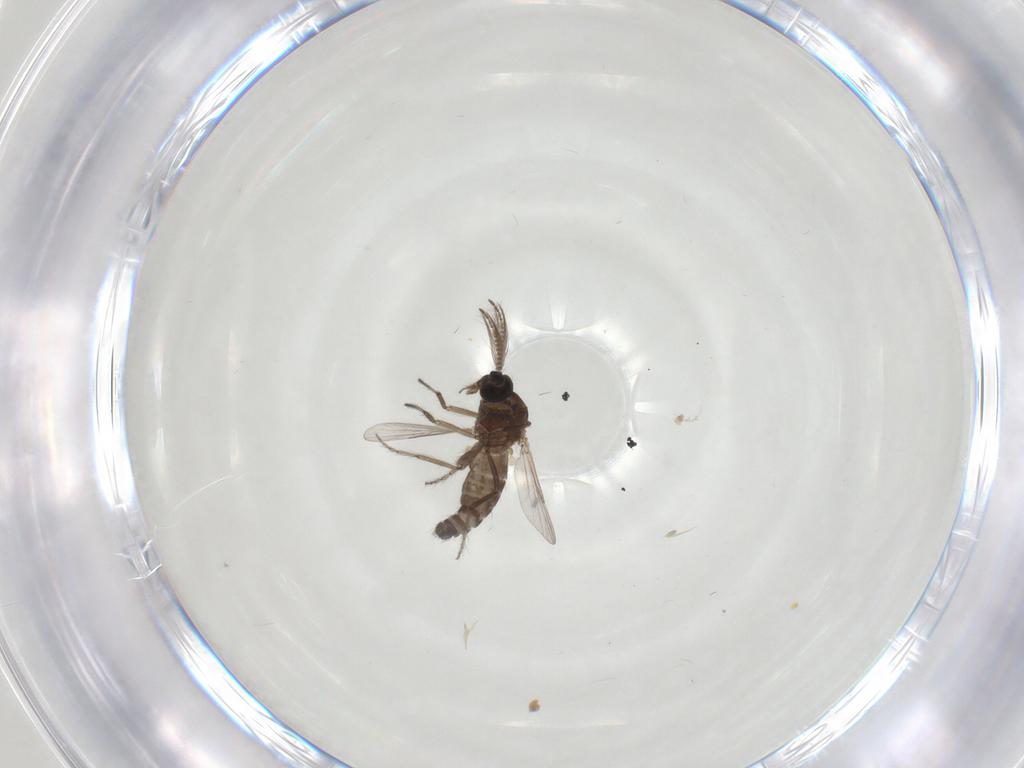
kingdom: Animalia
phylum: Arthropoda
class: Insecta
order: Diptera
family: Ceratopogonidae
